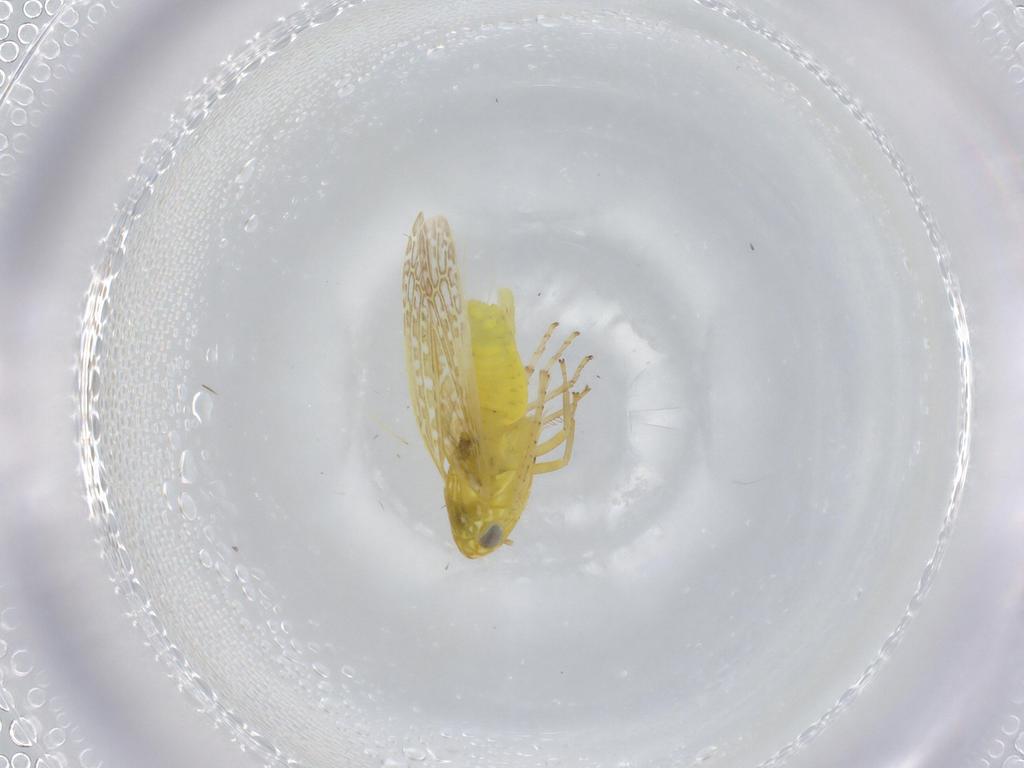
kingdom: Animalia
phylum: Arthropoda
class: Insecta
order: Hemiptera
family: Cicadellidae
